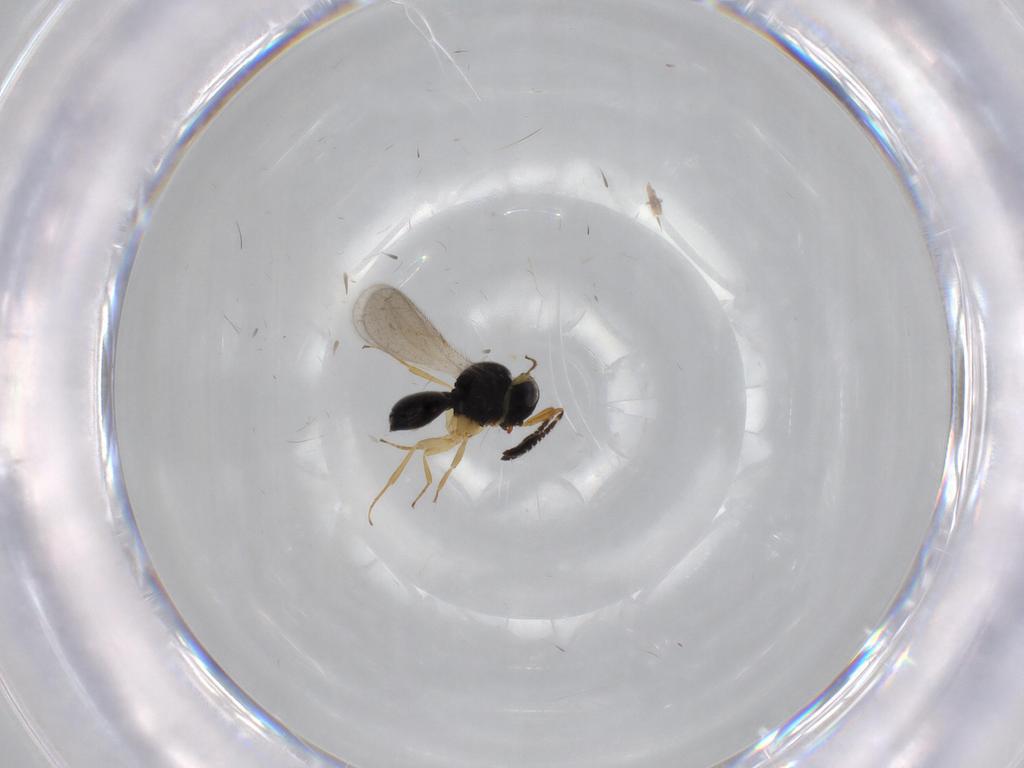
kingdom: Animalia
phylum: Arthropoda
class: Insecta
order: Hymenoptera
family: Scelionidae
